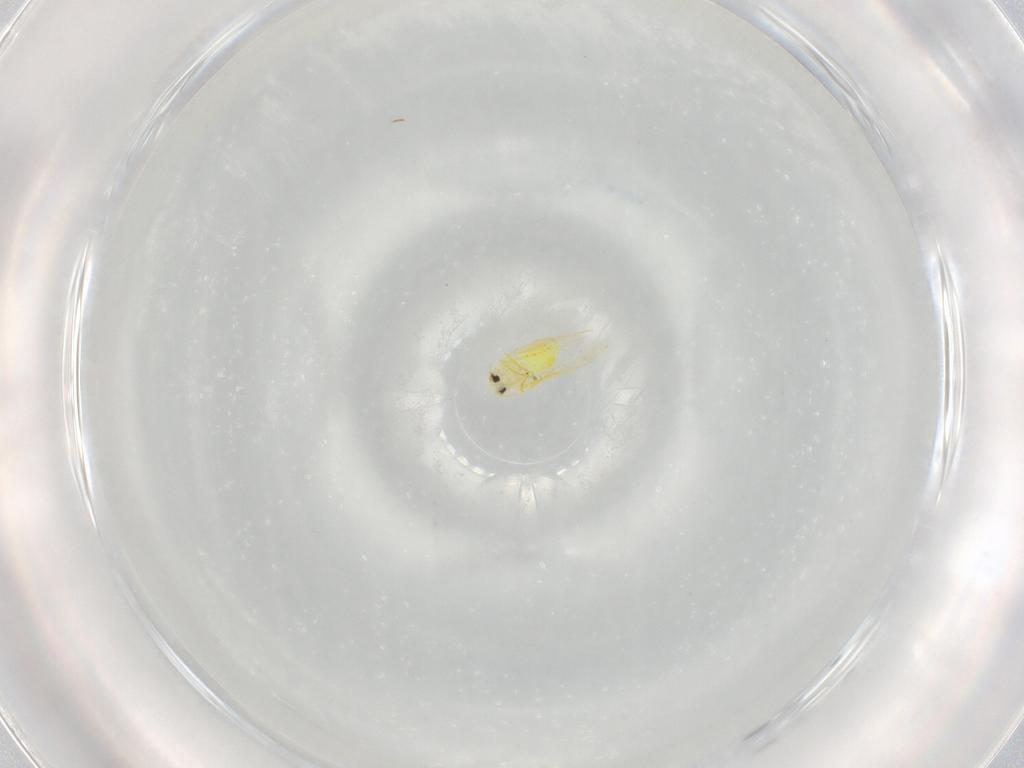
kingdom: Animalia
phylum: Arthropoda
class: Insecta
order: Hemiptera
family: Aleyrodidae
